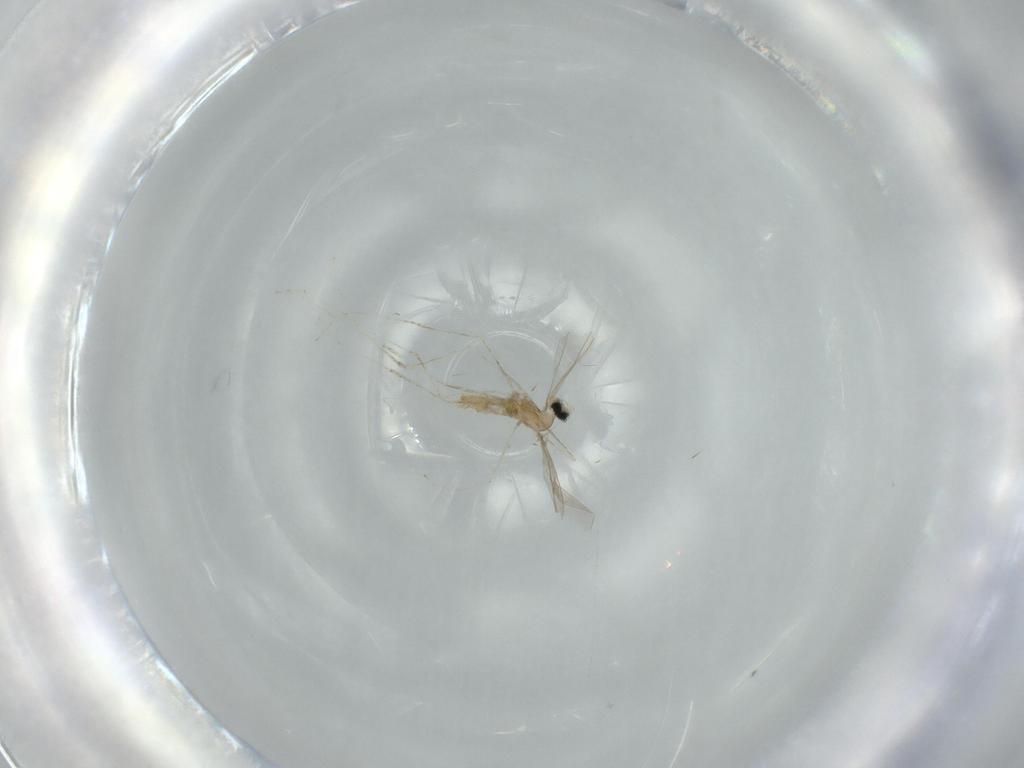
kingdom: Animalia
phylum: Arthropoda
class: Insecta
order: Diptera
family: Cecidomyiidae
